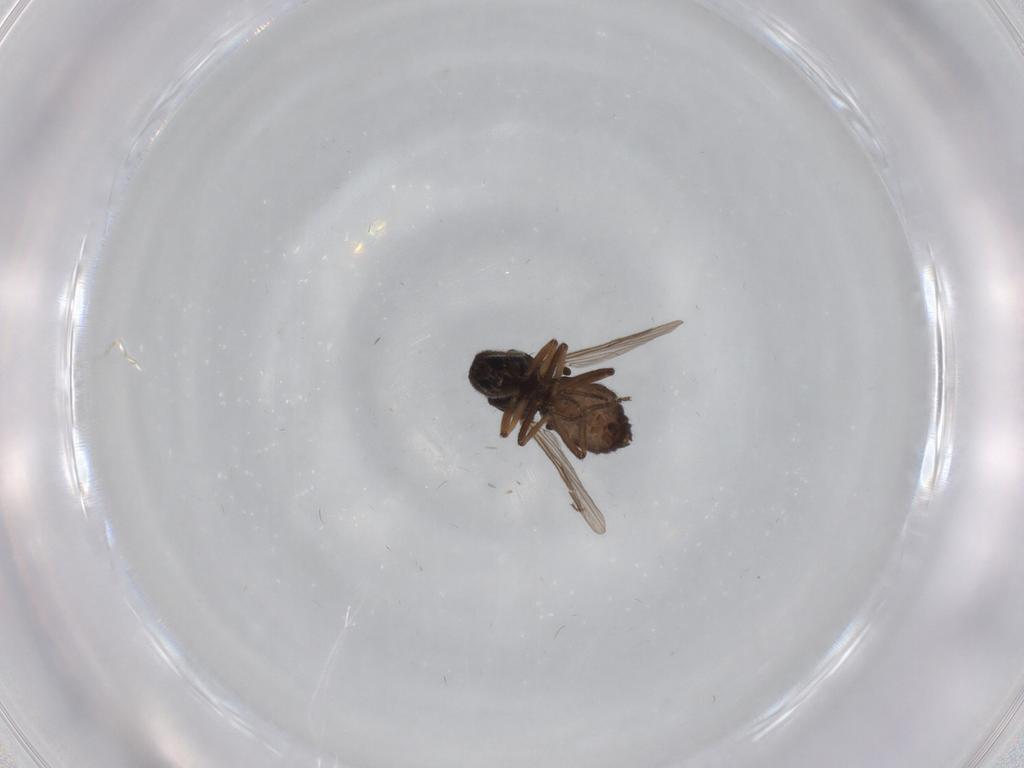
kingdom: Animalia
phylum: Arthropoda
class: Insecta
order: Diptera
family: Ceratopogonidae
